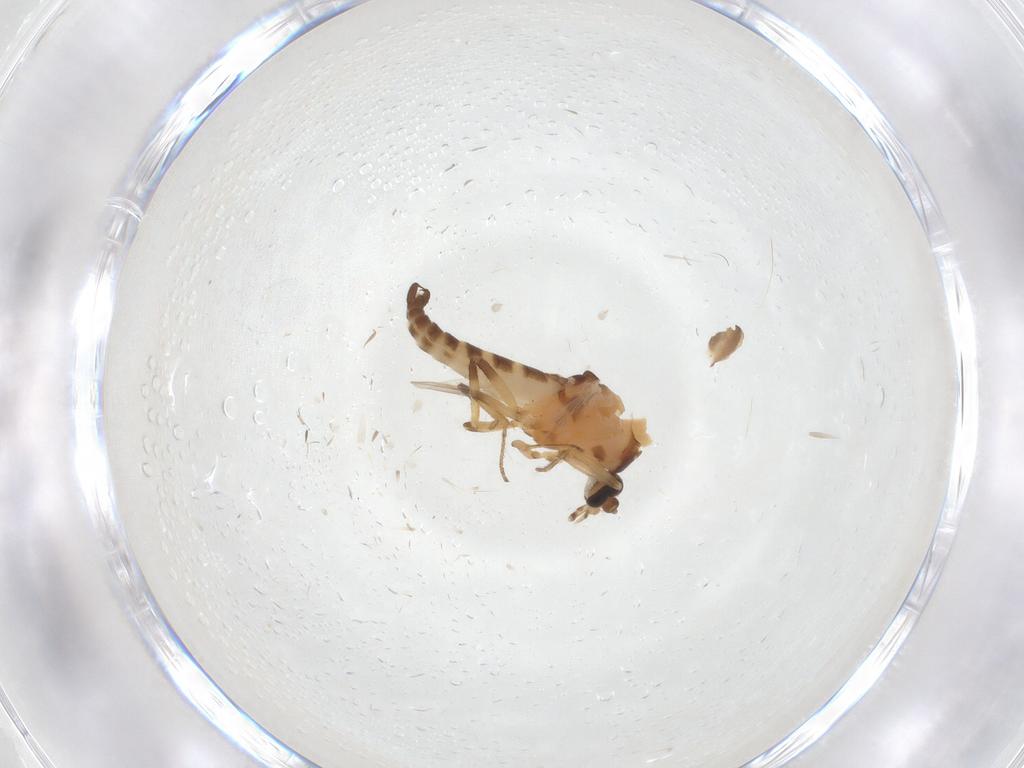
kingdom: Animalia
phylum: Arthropoda
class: Insecta
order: Diptera
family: Ceratopogonidae
